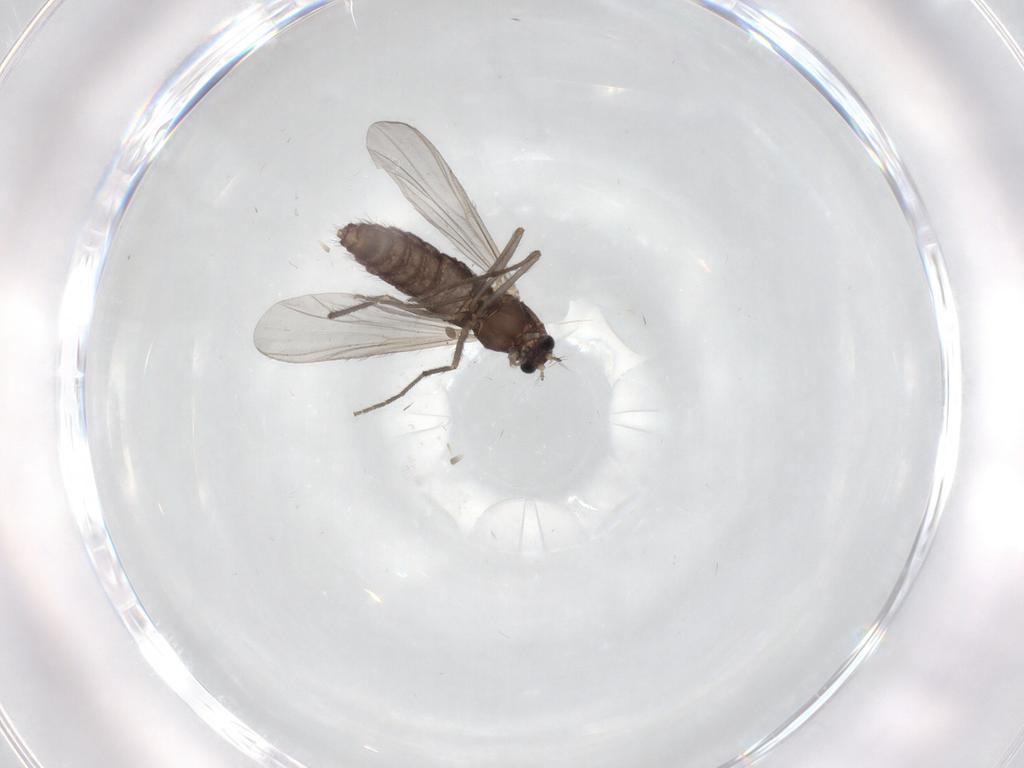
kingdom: Animalia
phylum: Arthropoda
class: Insecta
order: Diptera
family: Chironomidae
